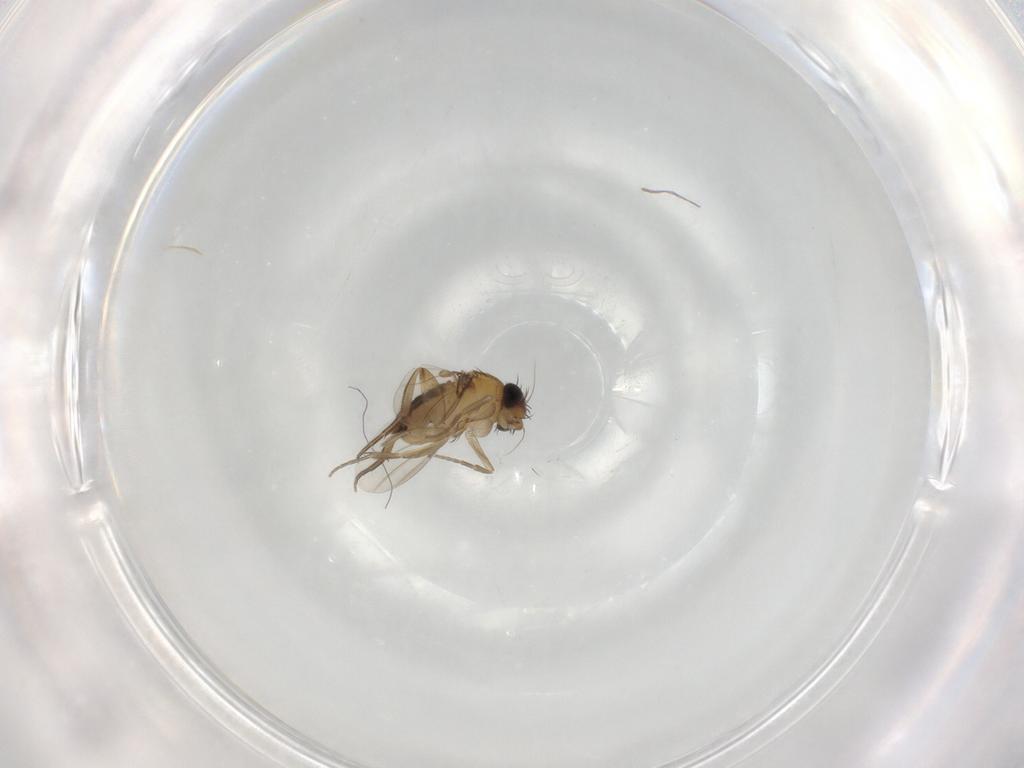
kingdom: Animalia
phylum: Arthropoda
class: Insecta
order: Diptera
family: Phoridae
